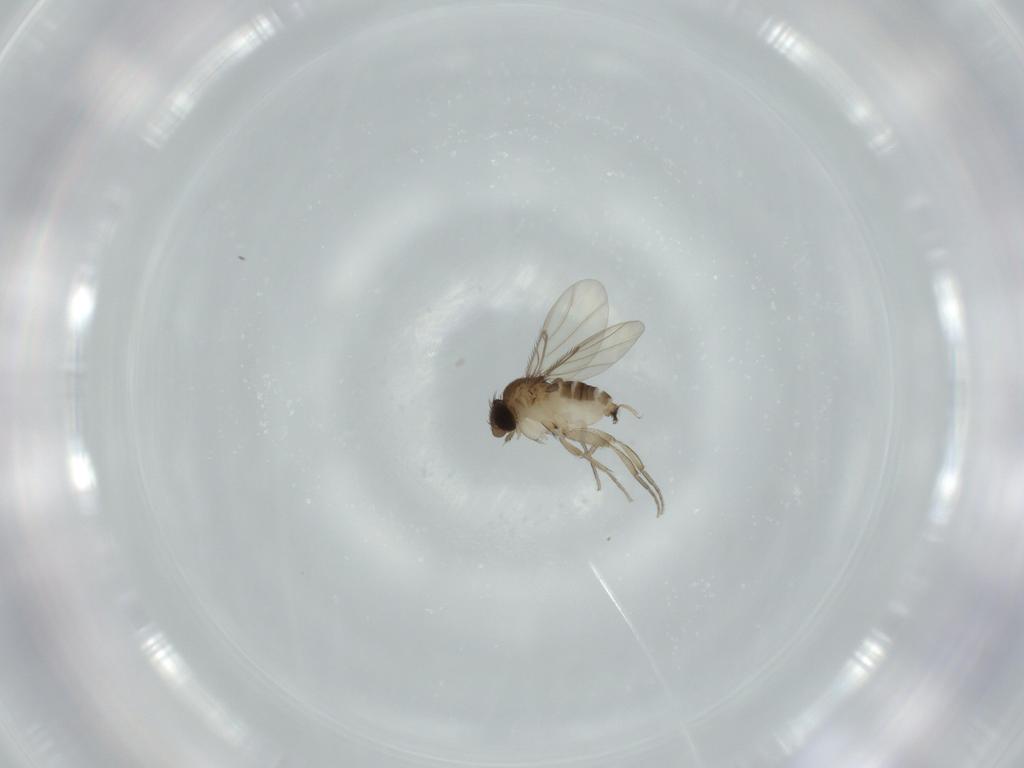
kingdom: Animalia
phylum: Arthropoda
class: Insecta
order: Diptera
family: Phoridae
